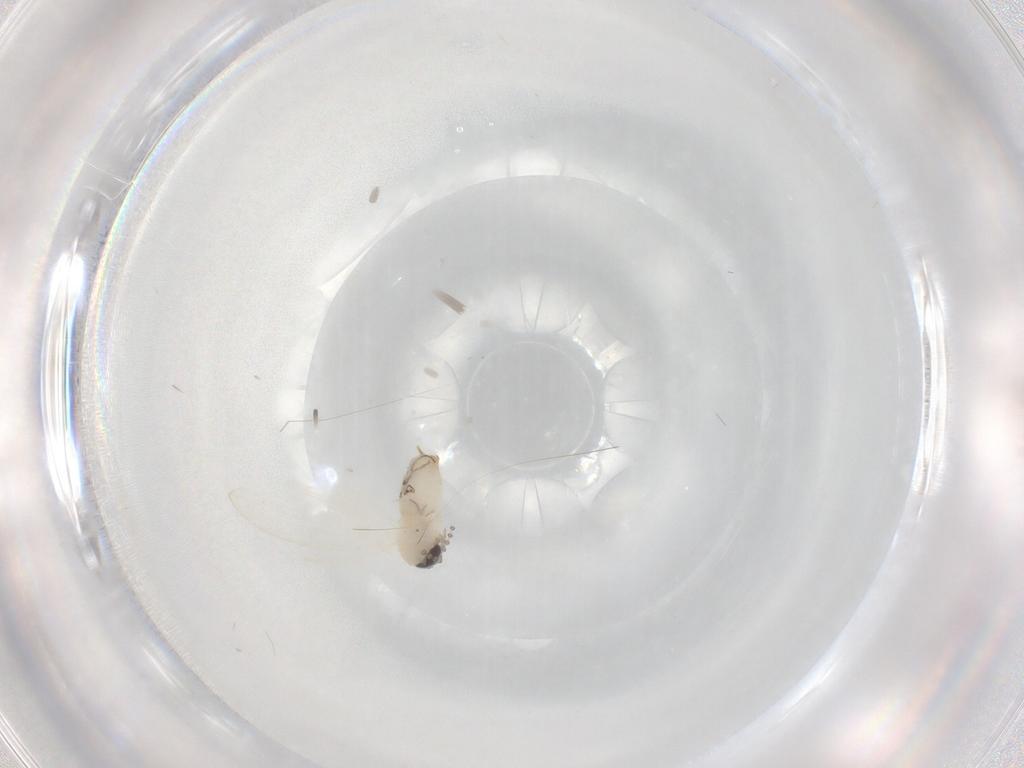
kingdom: Animalia
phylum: Arthropoda
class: Insecta
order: Diptera
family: Psychodidae
